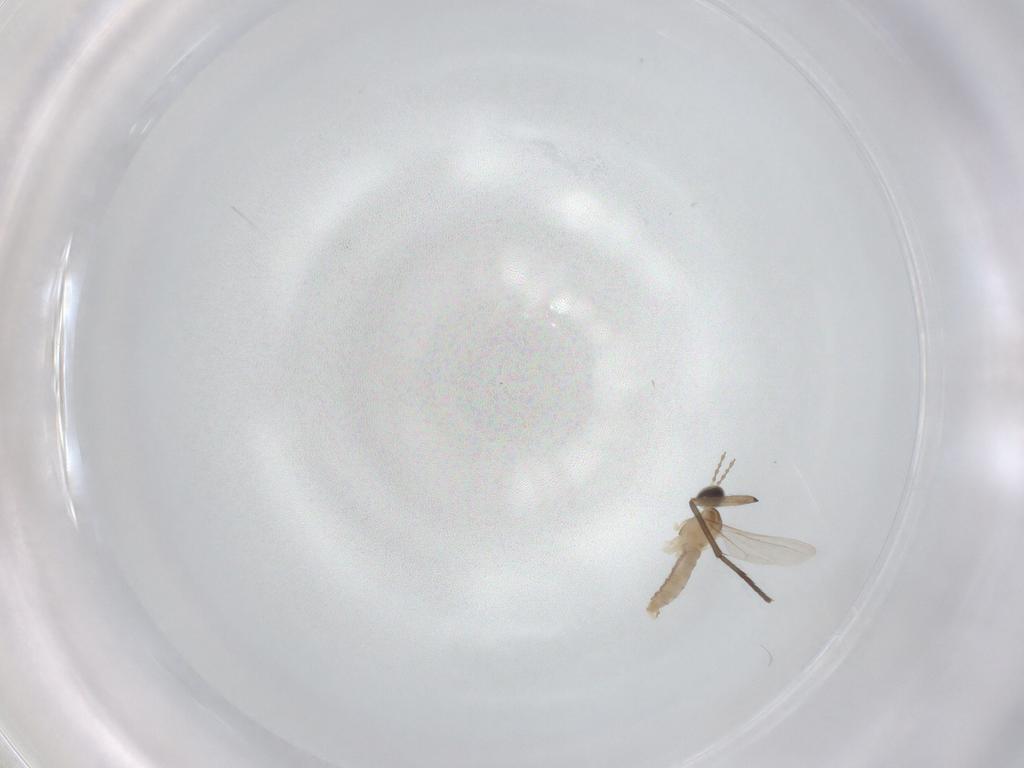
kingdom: Animalia
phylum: Arthropoda
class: Insecta
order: Diptera
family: Cecidomyiidae
